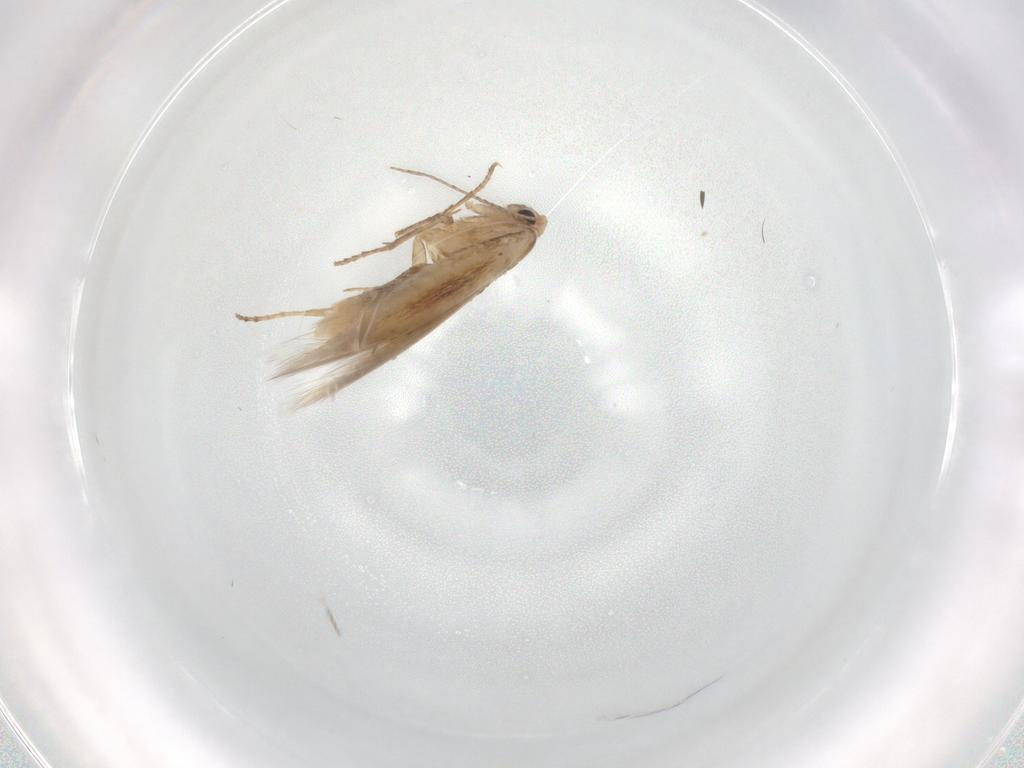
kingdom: Animalia
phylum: Arthropoda
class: Insecta
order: Lepidoptera
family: Bucculatricidae
